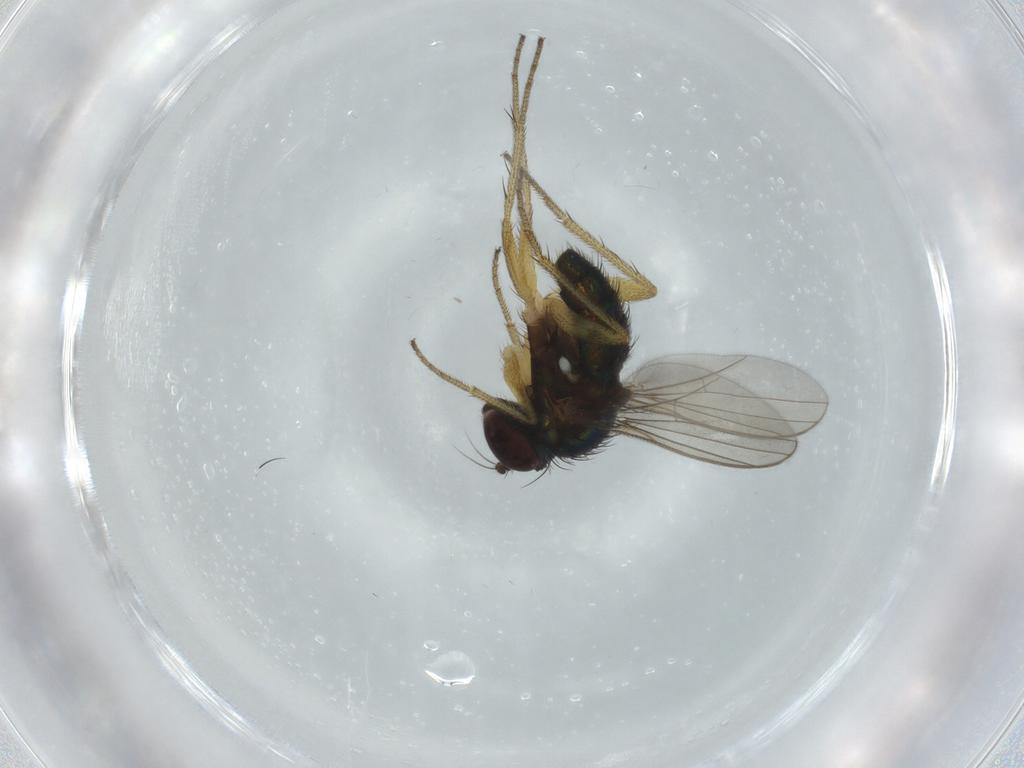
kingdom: Animalia
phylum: Arthropoda
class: Insecta
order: Diptera
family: Dolichopodidae
